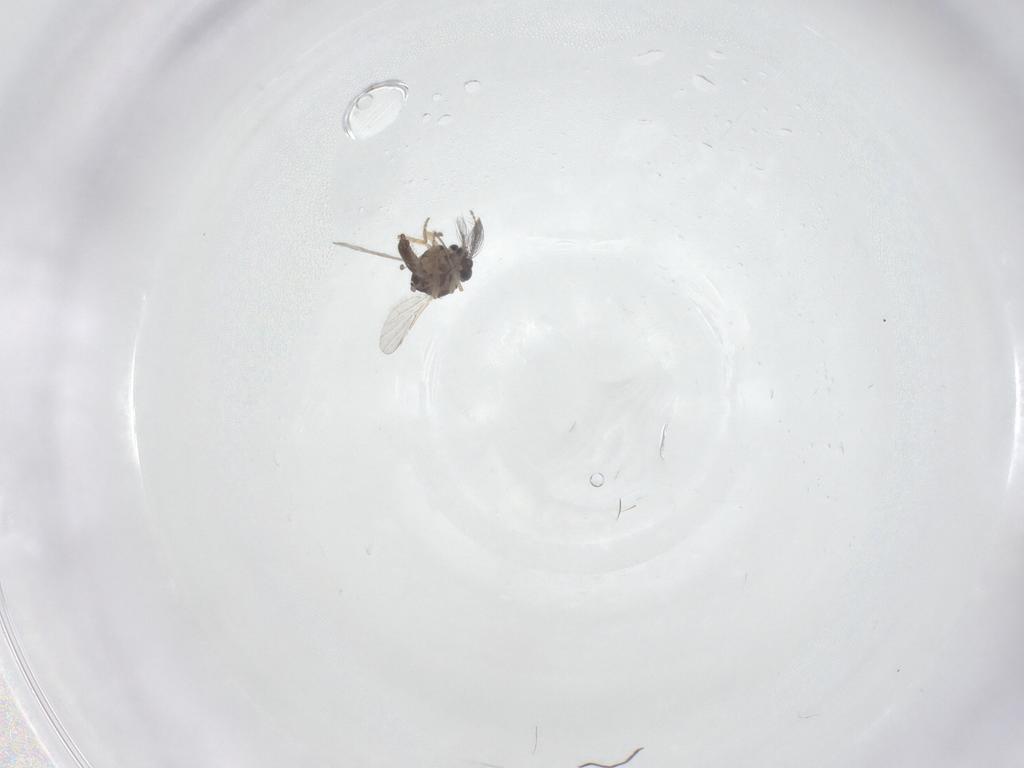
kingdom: Animalia
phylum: Arthropoda
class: Insecta
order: Diptera
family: Ceratopogonidae
